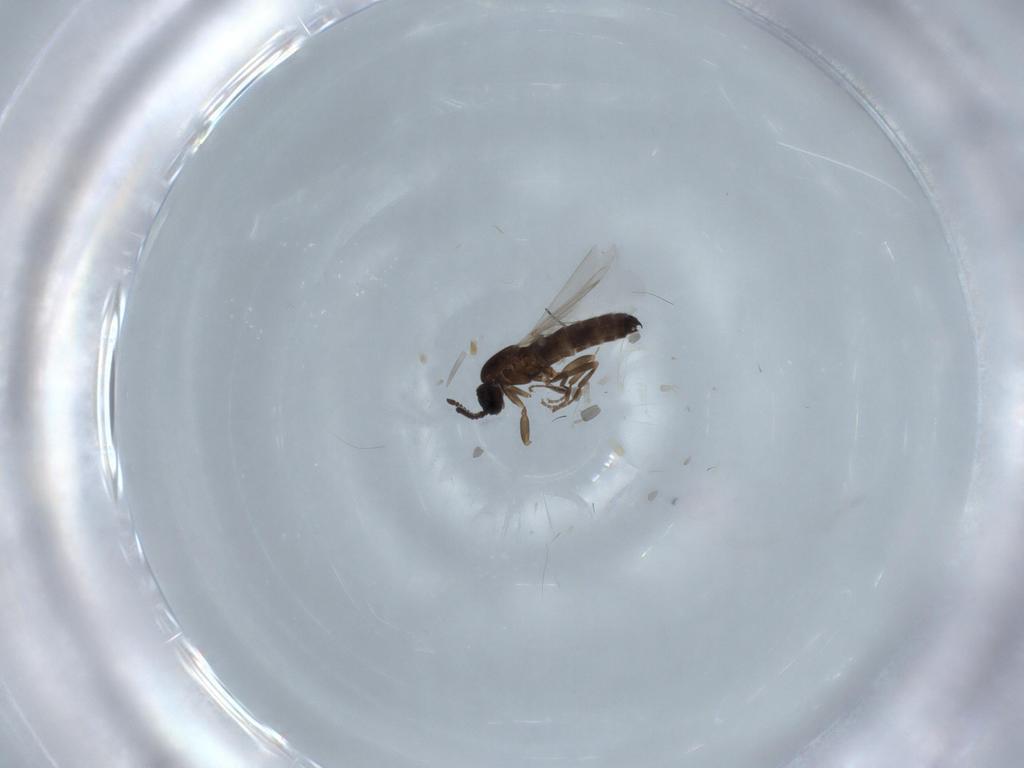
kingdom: Animalia
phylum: Arthropoda
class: Insecta
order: Diptera
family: Scatopsidae
